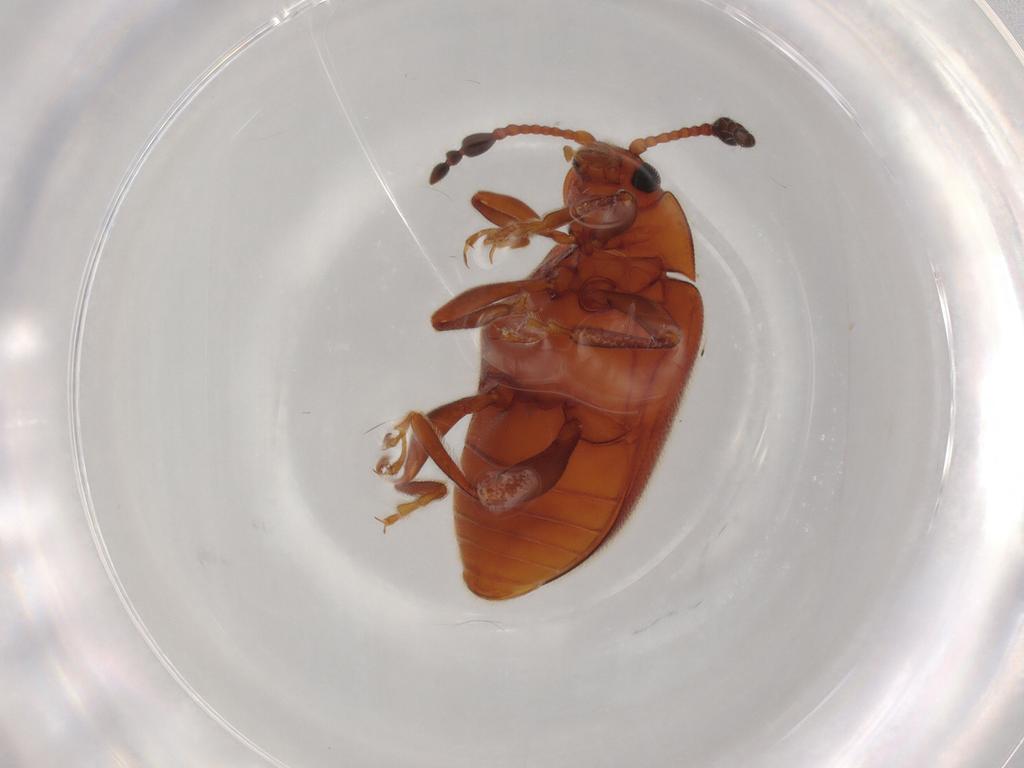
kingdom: Animalia
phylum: Arthropoda
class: Insecta
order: Coleoptera
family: Endomychidae
